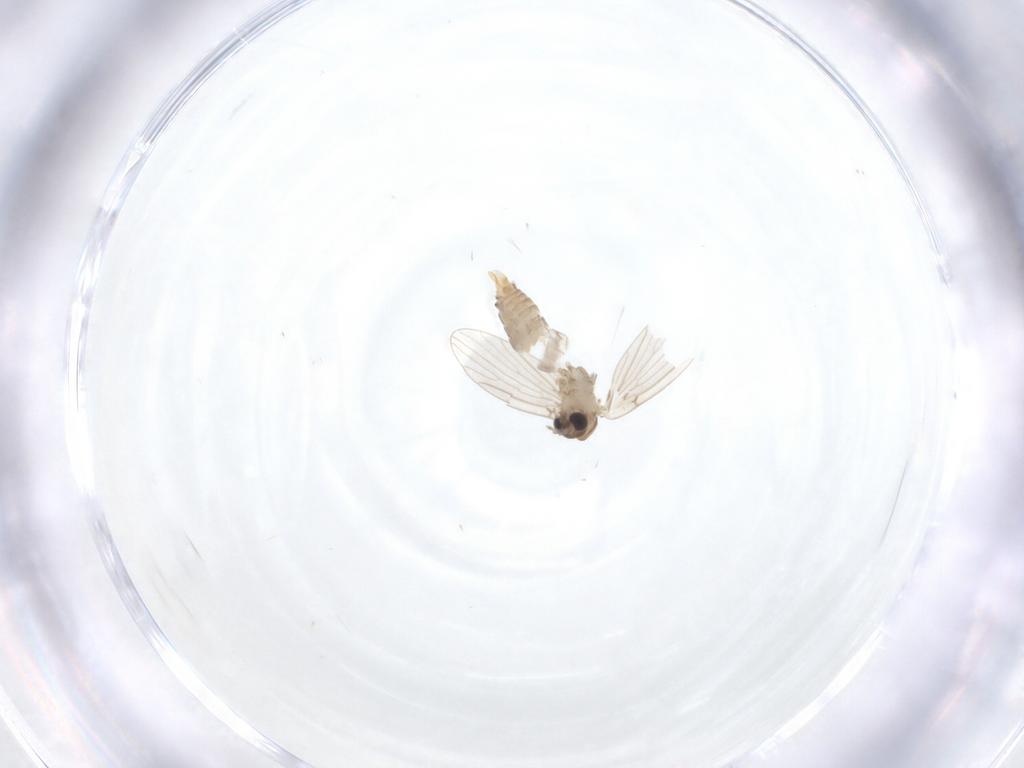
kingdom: Animalia
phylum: Arthropoda
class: Insecta
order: Diptera
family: Psychodidae
